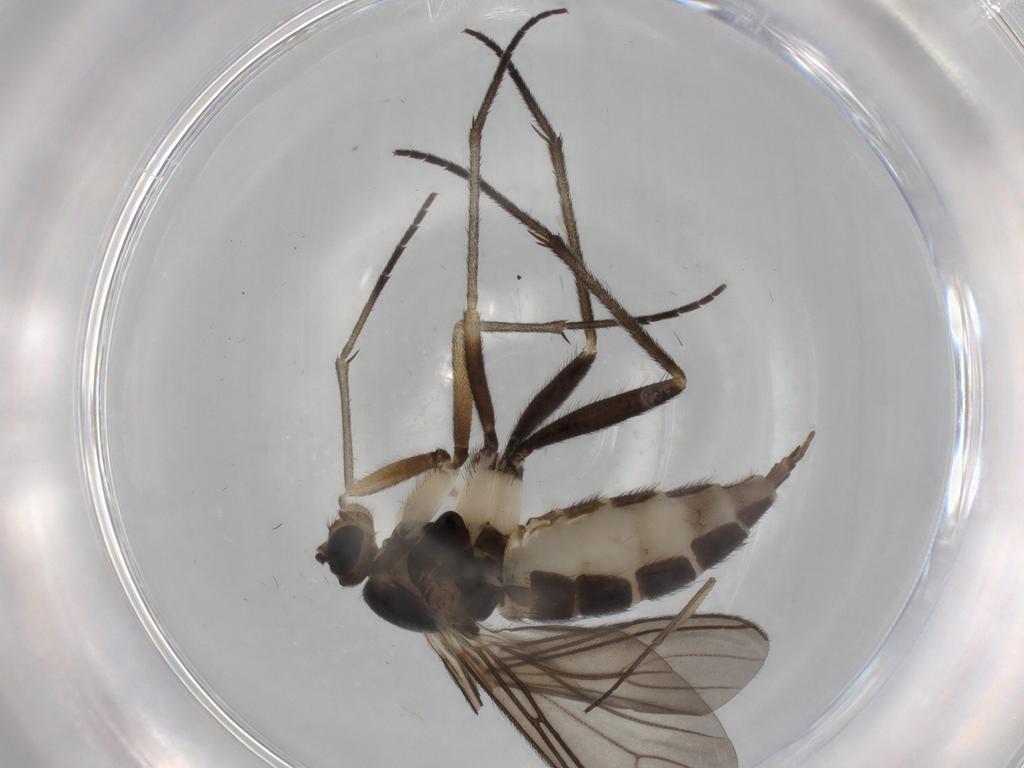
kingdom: Animalia
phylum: Arthropoda
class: Insecta
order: Diptera
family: Sciaridae
